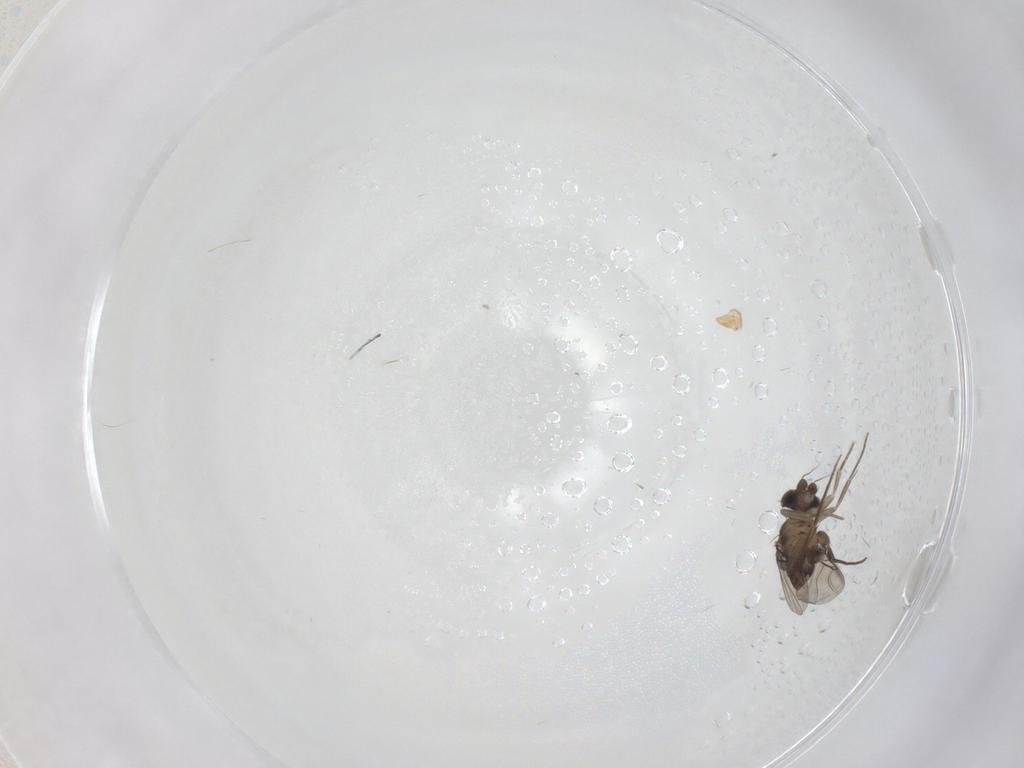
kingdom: Animalia
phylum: Arthropoda
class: Insecta
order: Diptera
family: Phoridae
